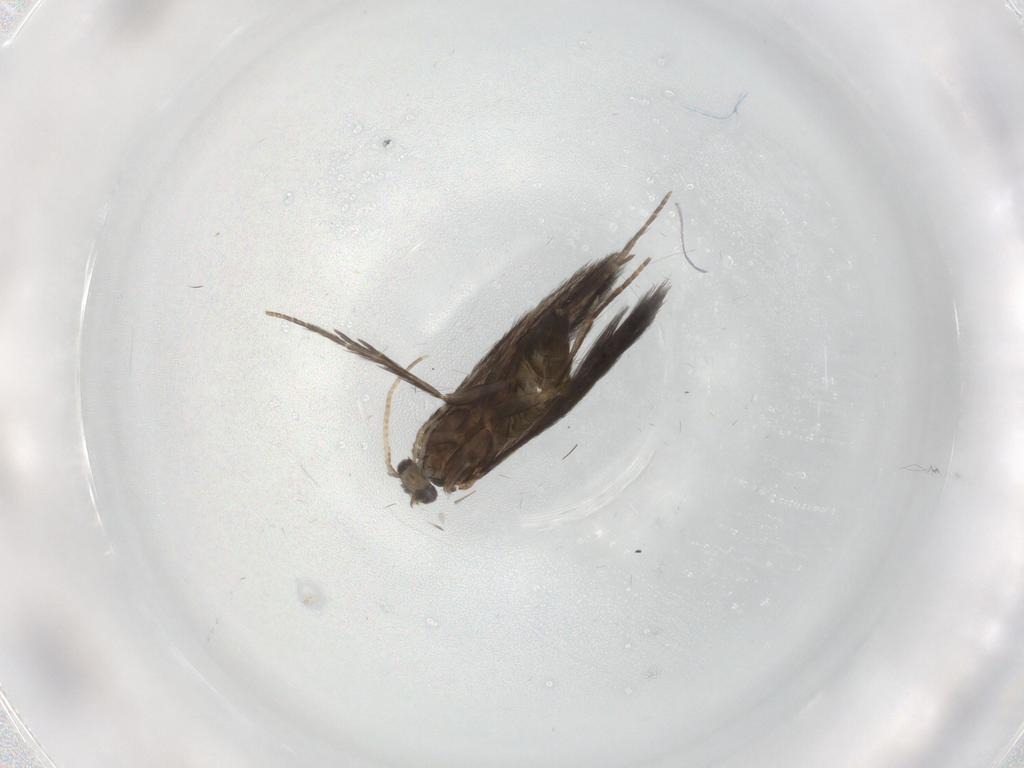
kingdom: Animalia
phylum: Arthropoda
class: Insecta
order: Trichoptera
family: Hydroptilidae
